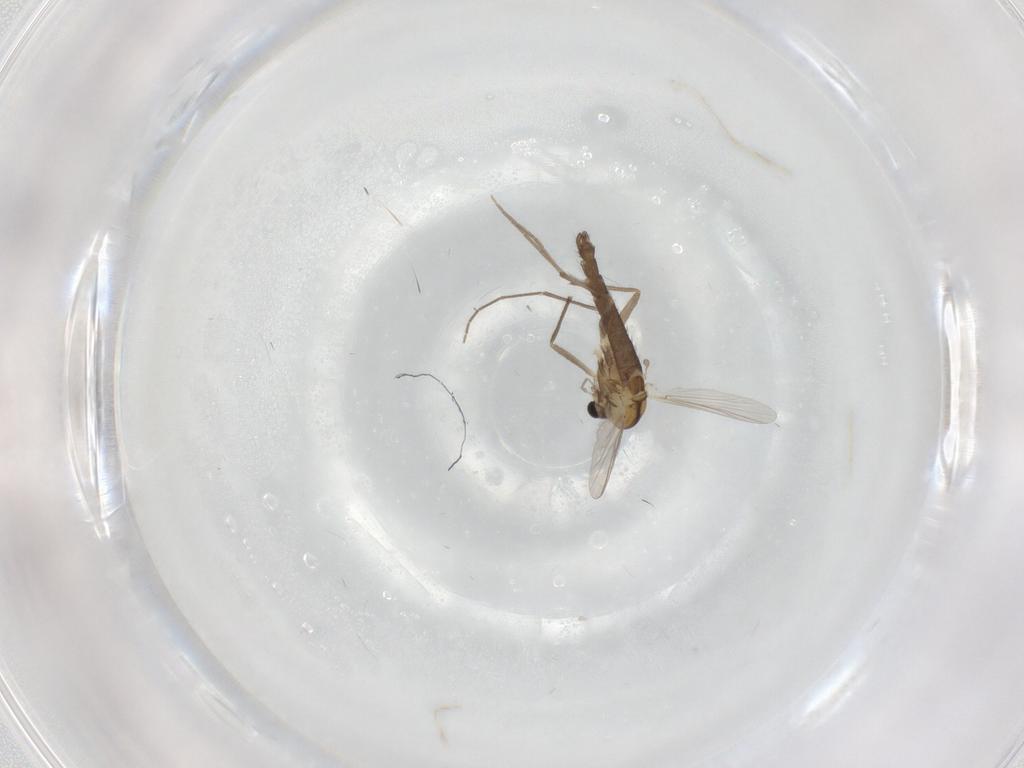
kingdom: Animalia
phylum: Arthropoda
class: Insecta
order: Diptera
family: Chironomidae
